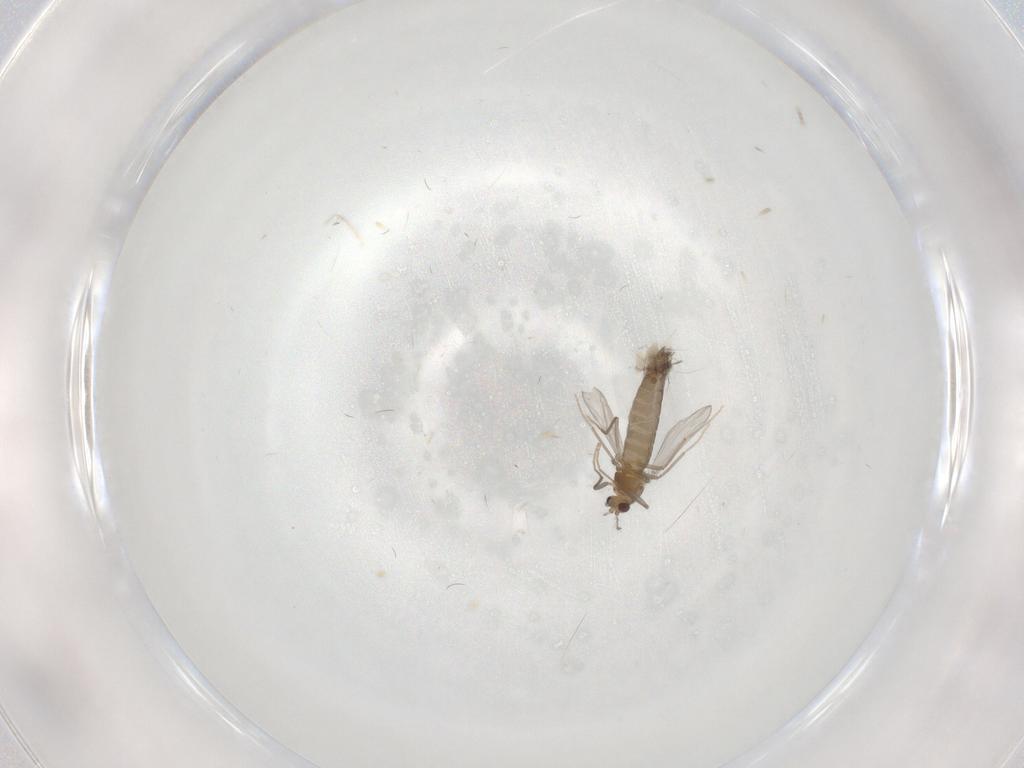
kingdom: Animalia
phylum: Arthropoda
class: Insecta
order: Diptera
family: Chironomidae
